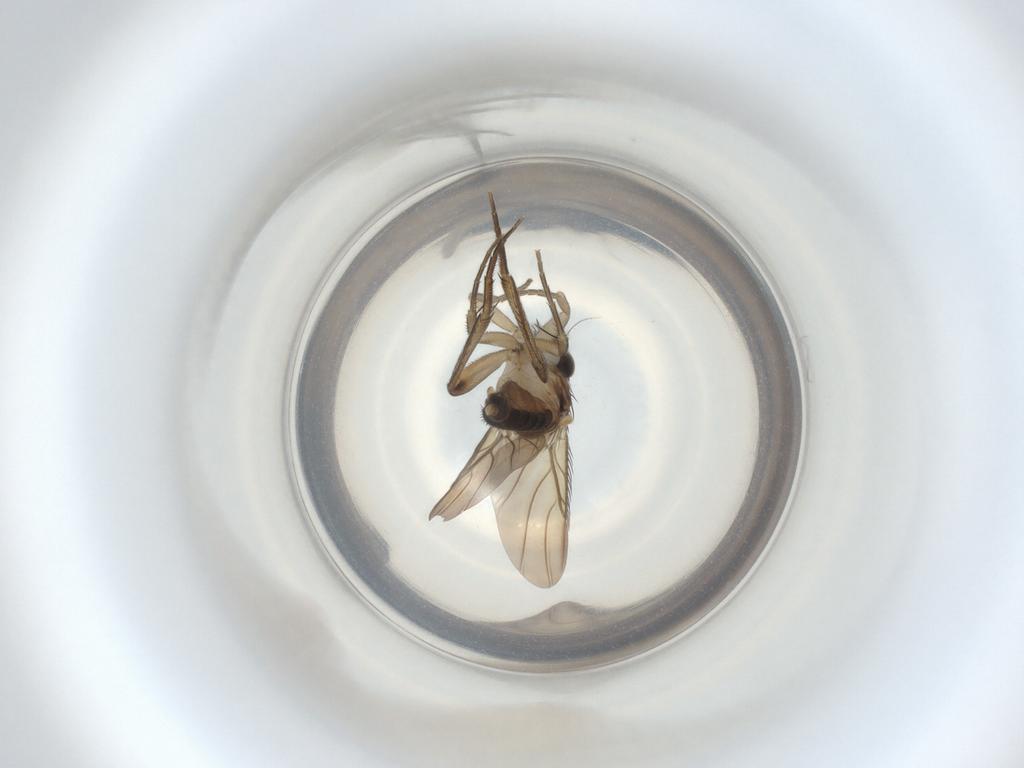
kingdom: Animalia
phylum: Arthropoda
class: Insecta
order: Diptera
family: Phoridae
